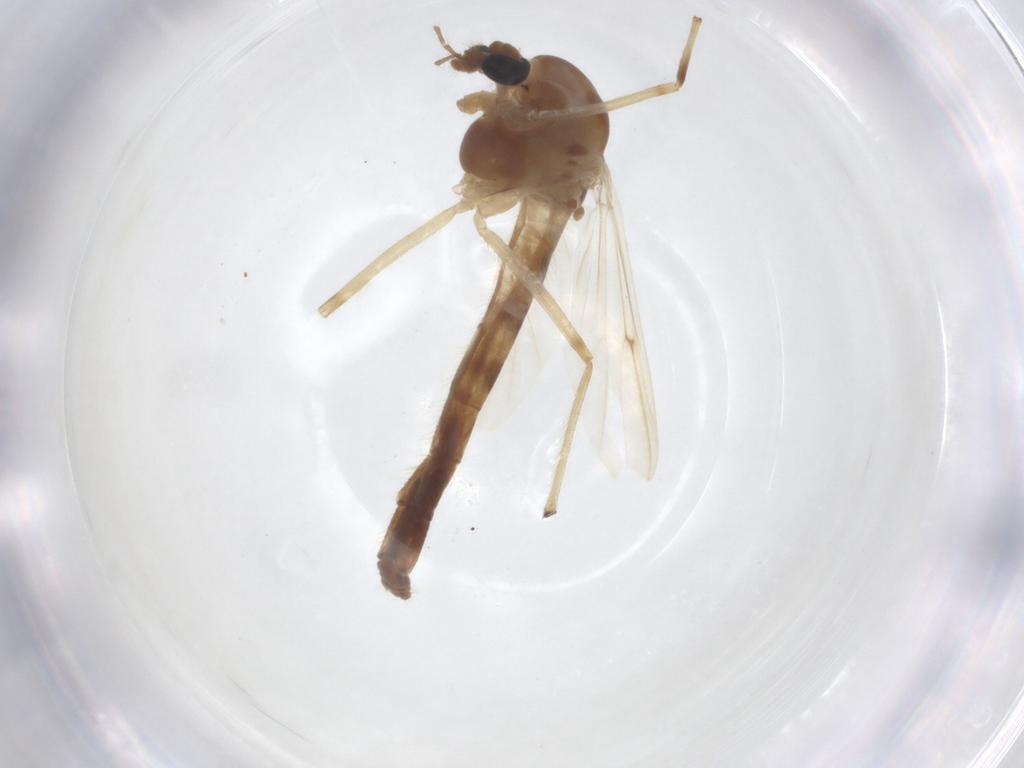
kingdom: Animalia
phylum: Arthropoda
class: Insecta
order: Diptera
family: Chironomidae
